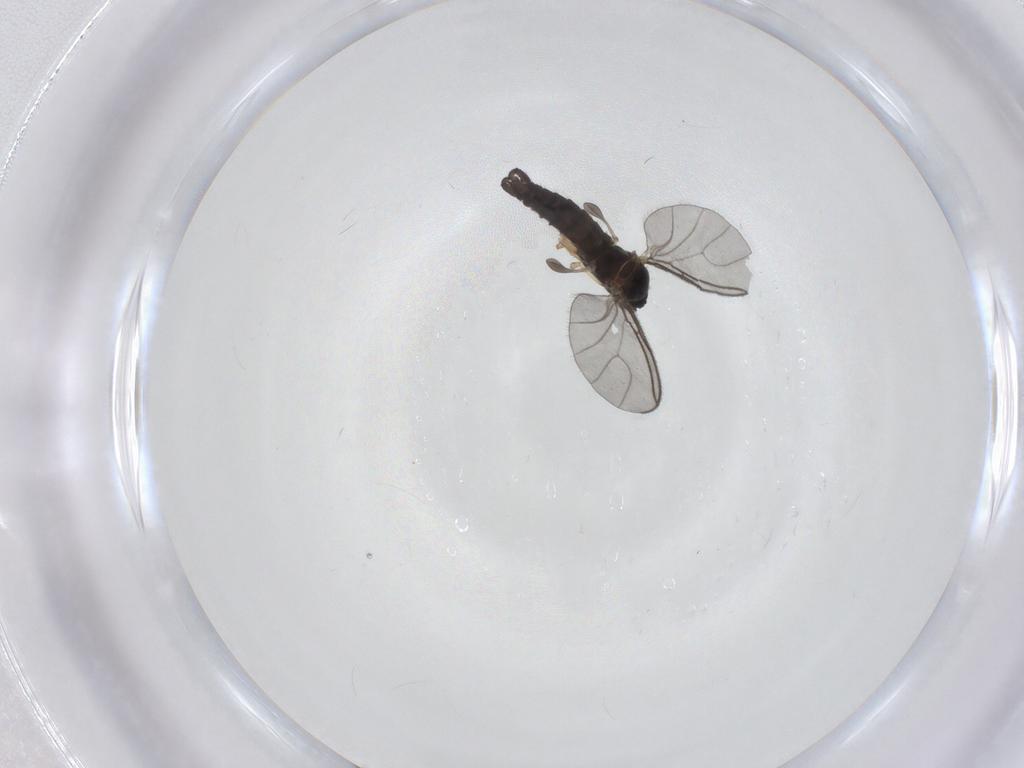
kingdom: Animalia
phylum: Arthropoda
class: Insecta
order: Diptera
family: Sciaridae
